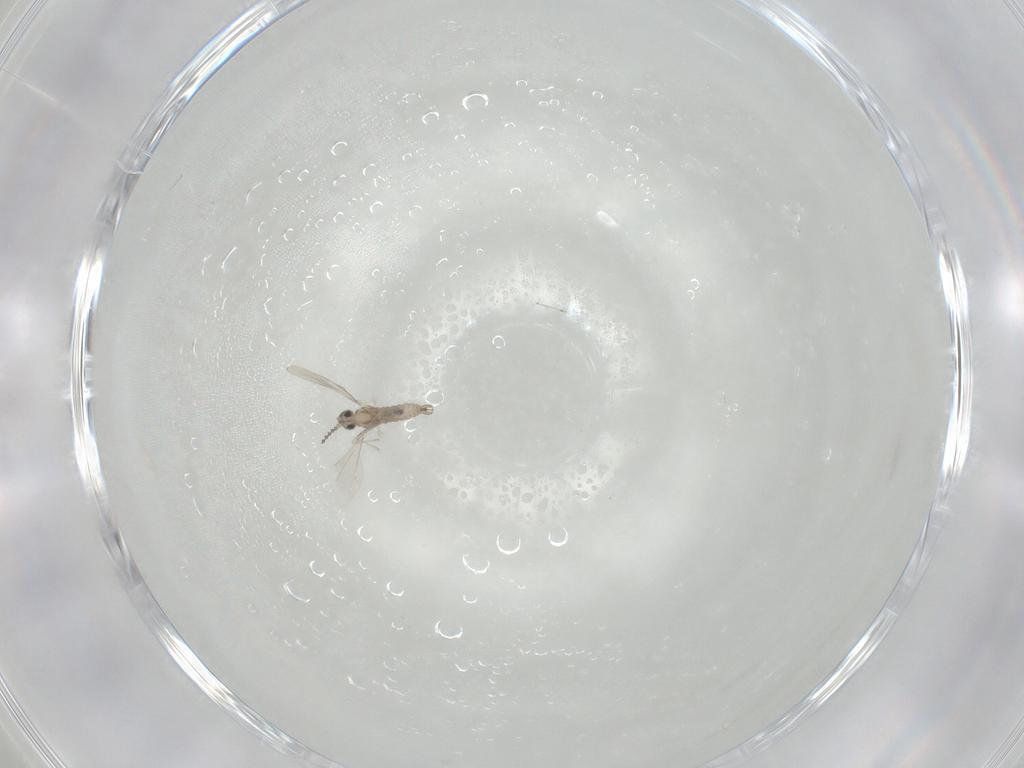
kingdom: Animalia
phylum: Arthropoda
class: Insecta
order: Diptera
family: Cecidomyiidae
